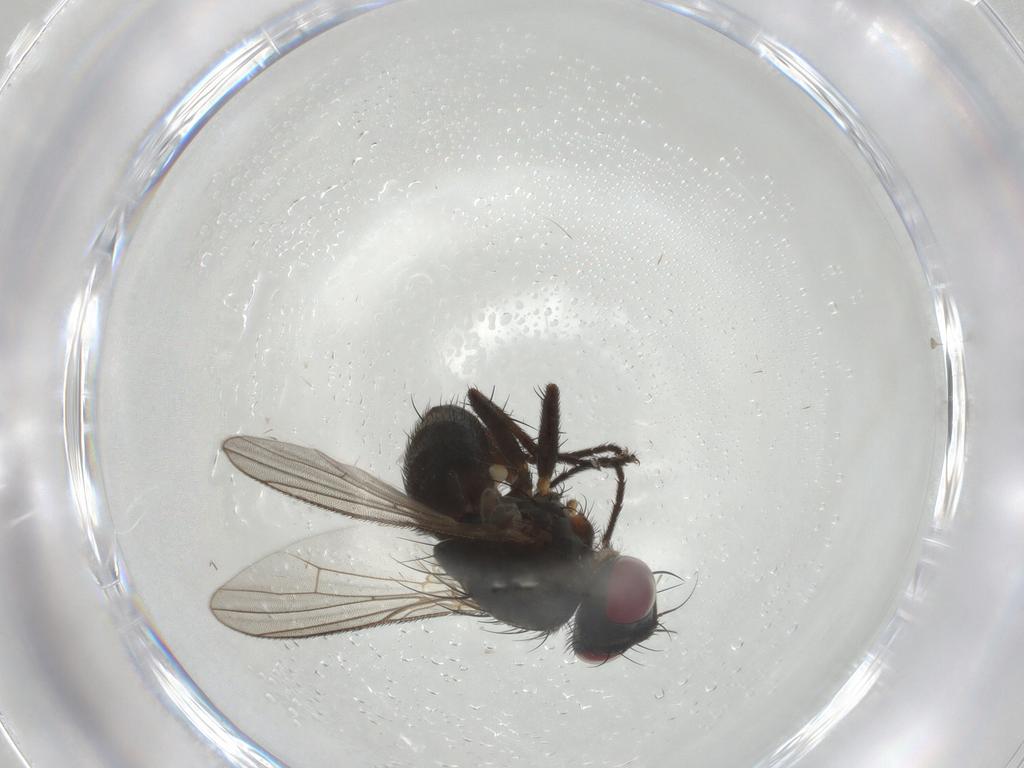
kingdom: Animalia
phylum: Arthropoda
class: Insecta
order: Diptera
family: Muscidae
